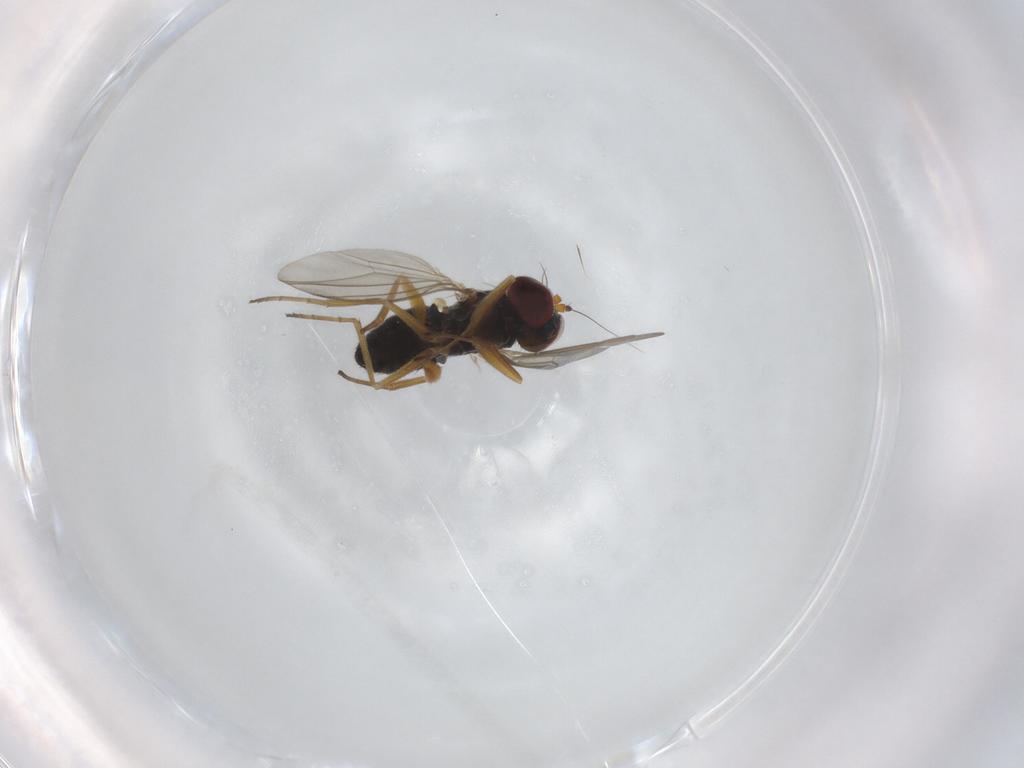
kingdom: Animalia
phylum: Arthropoda
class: Insecta
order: Diptera
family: Dolichopodidae
